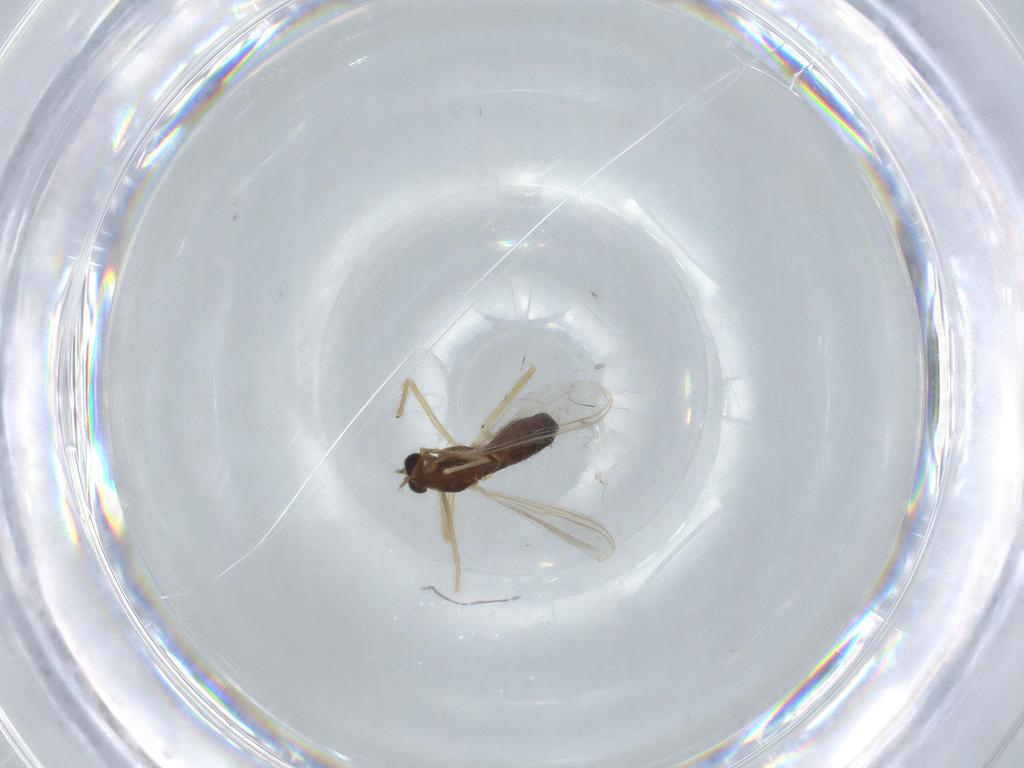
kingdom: Animalia
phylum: Arthropoda
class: Insecta
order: Diptera
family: Chironomidae
